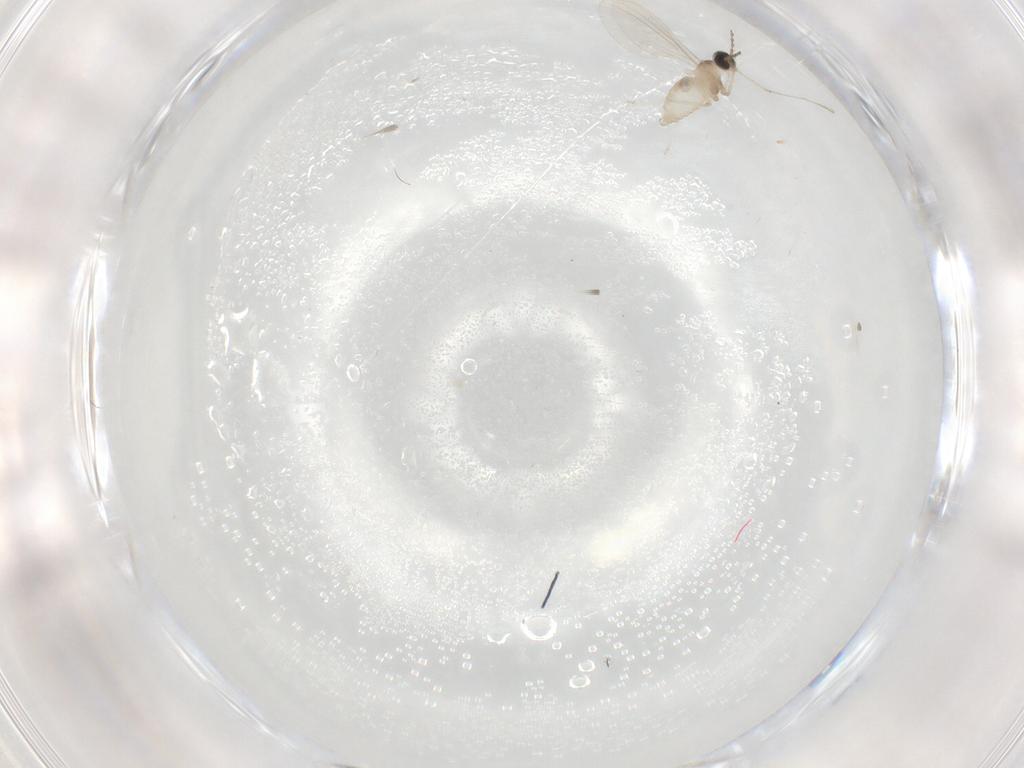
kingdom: Animalia
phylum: Arthropoda
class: Insecta
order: Diptera
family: Hybotidae
